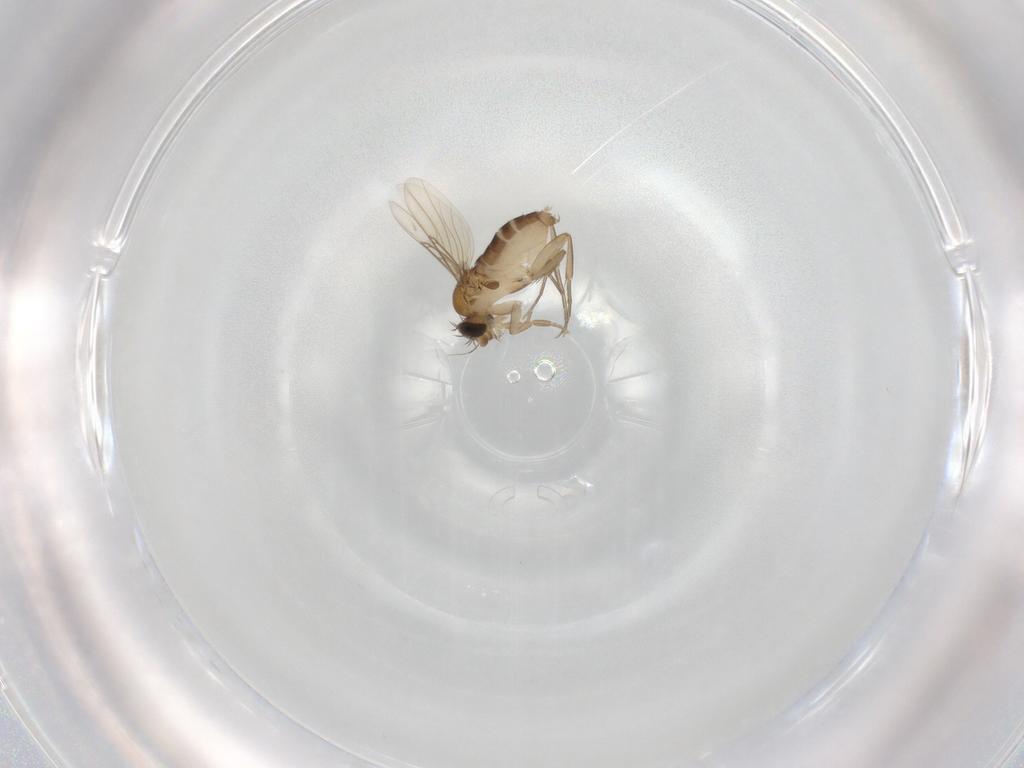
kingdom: Animalia
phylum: Arthropoda
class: Insecta
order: Diptera
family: Phoridae
